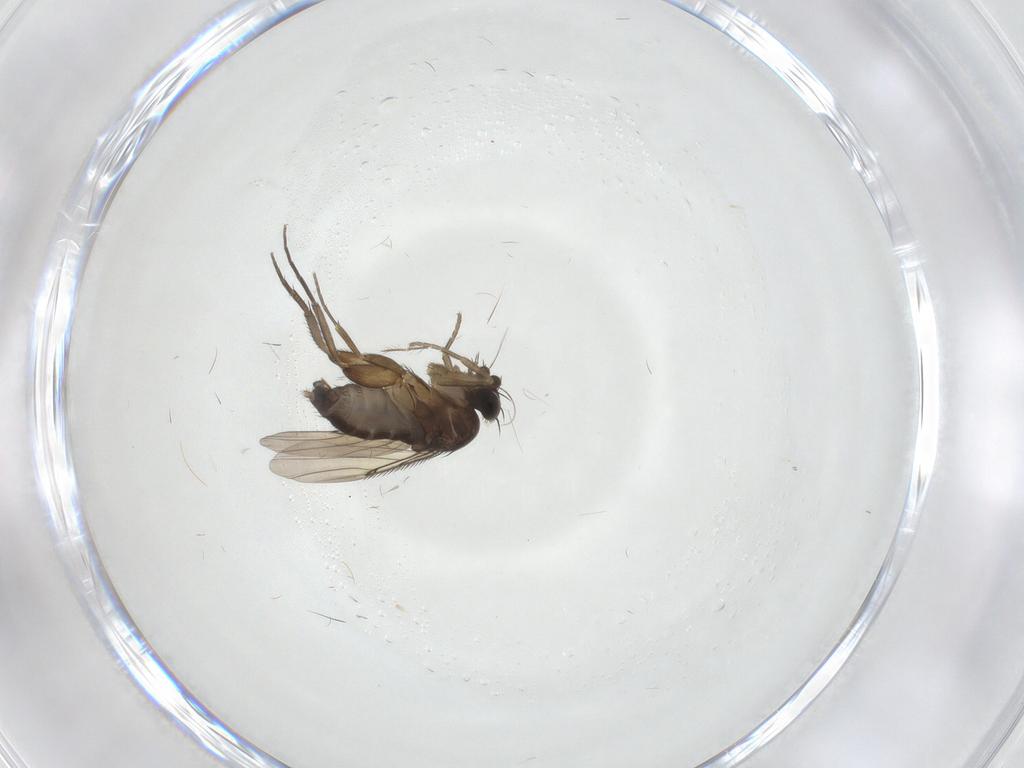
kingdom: Animalia
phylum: Arthropoda
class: Insecta
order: Diptera
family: Phoridae
